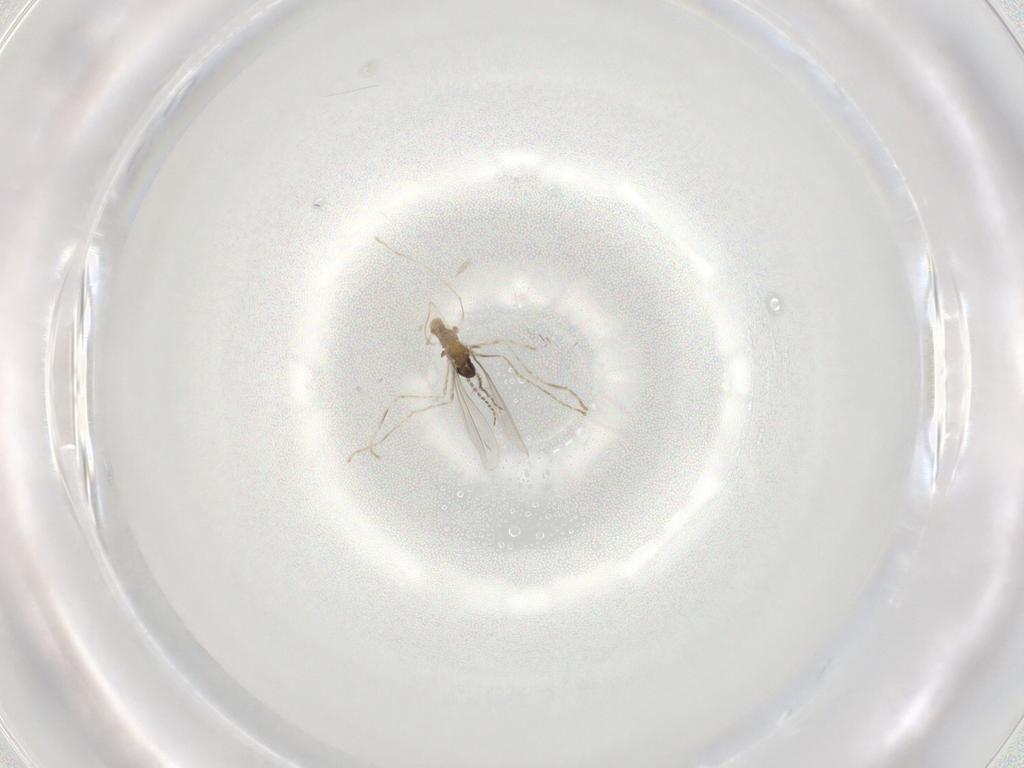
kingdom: Animalia
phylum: Arthropoda
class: Insecta
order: Diptera
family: Cecidomyiidae
